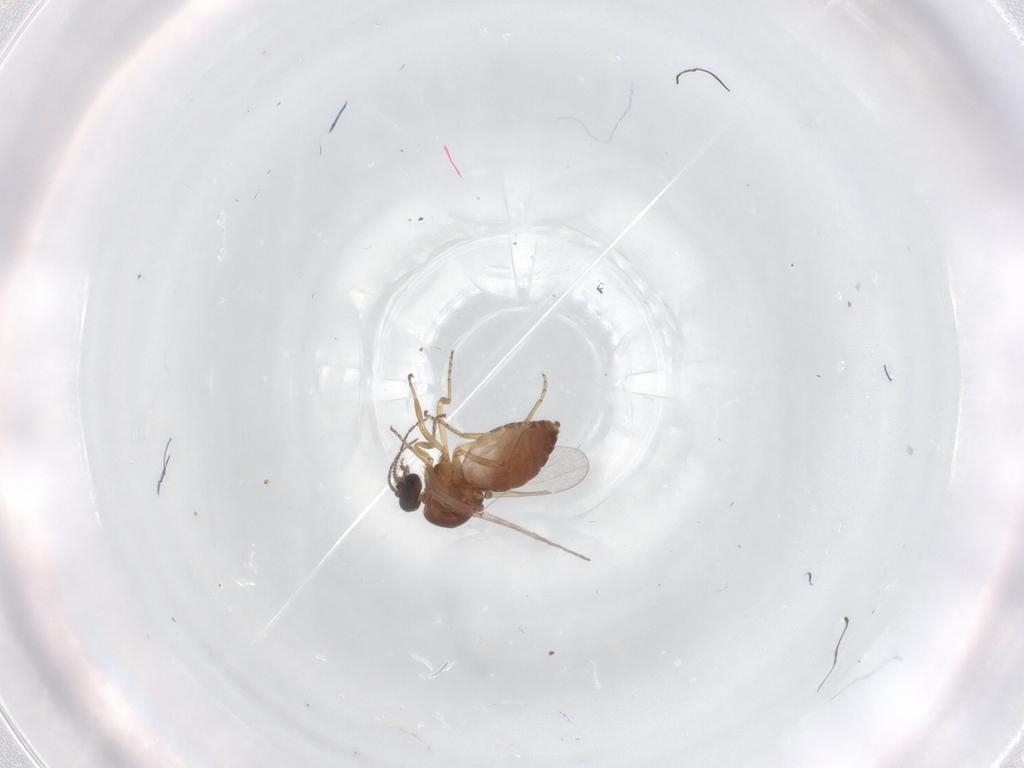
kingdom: Animalia
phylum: Arthropoda
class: Insecta
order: Diptera
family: Ceratopogonidae
